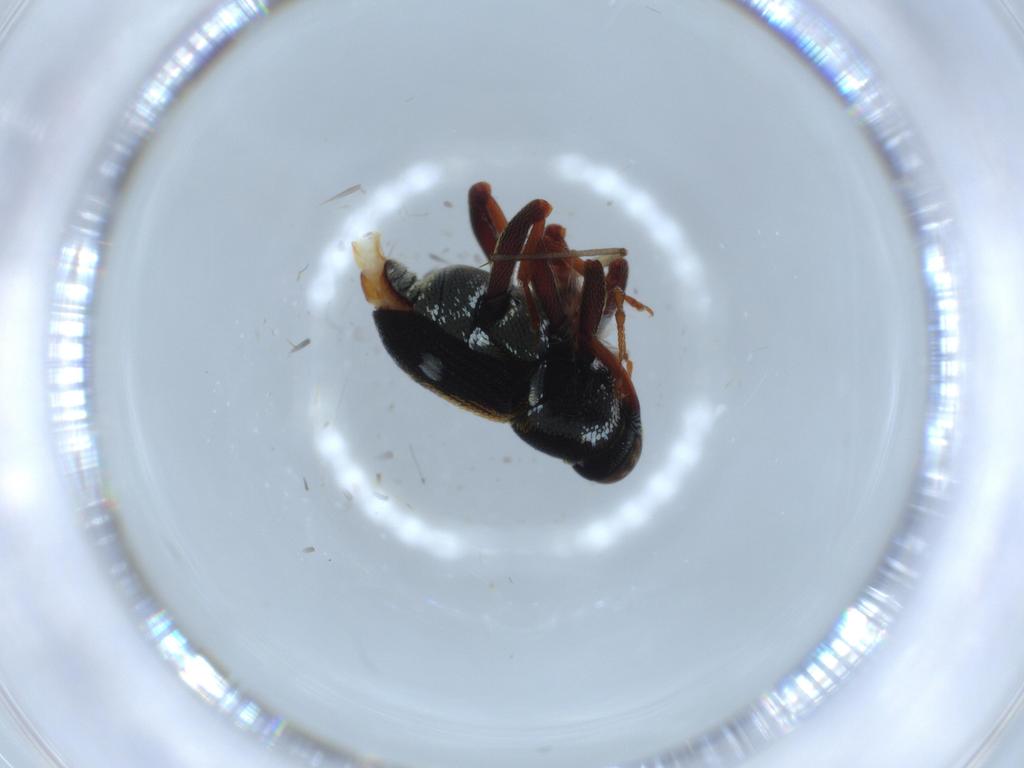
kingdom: Animalia
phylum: Arthropoda
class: Insecta
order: Coleoptera
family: Curculionidae
